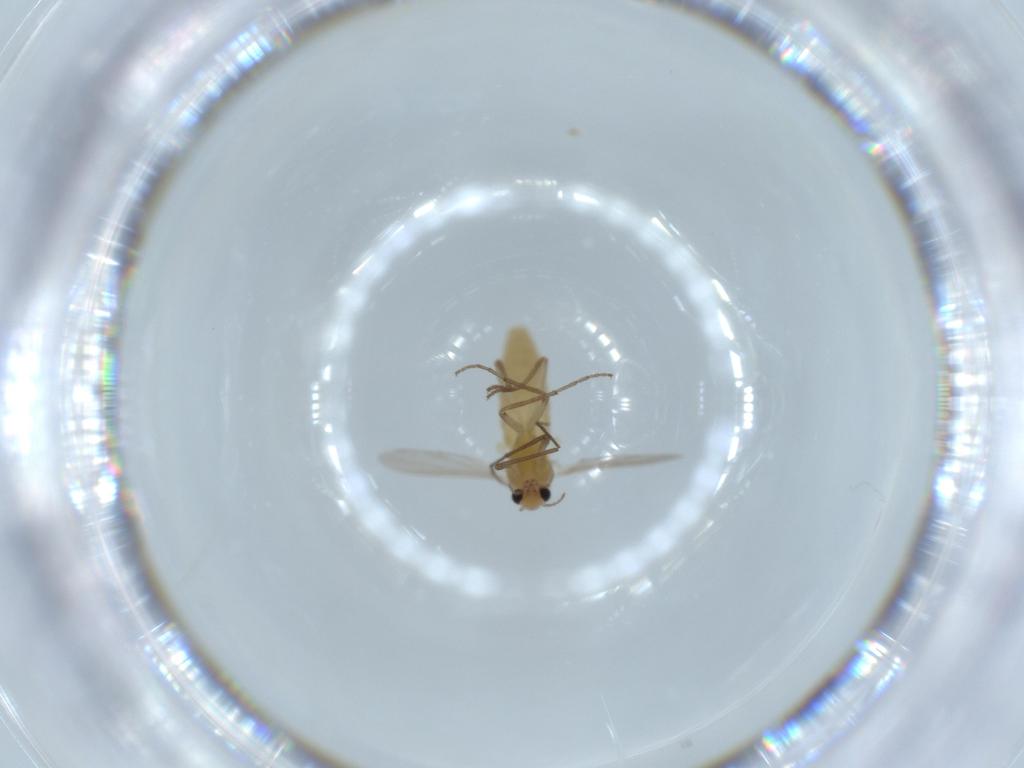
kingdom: Animalia
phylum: Arthropoda
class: Insecta
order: Diptera
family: Chironomidae
